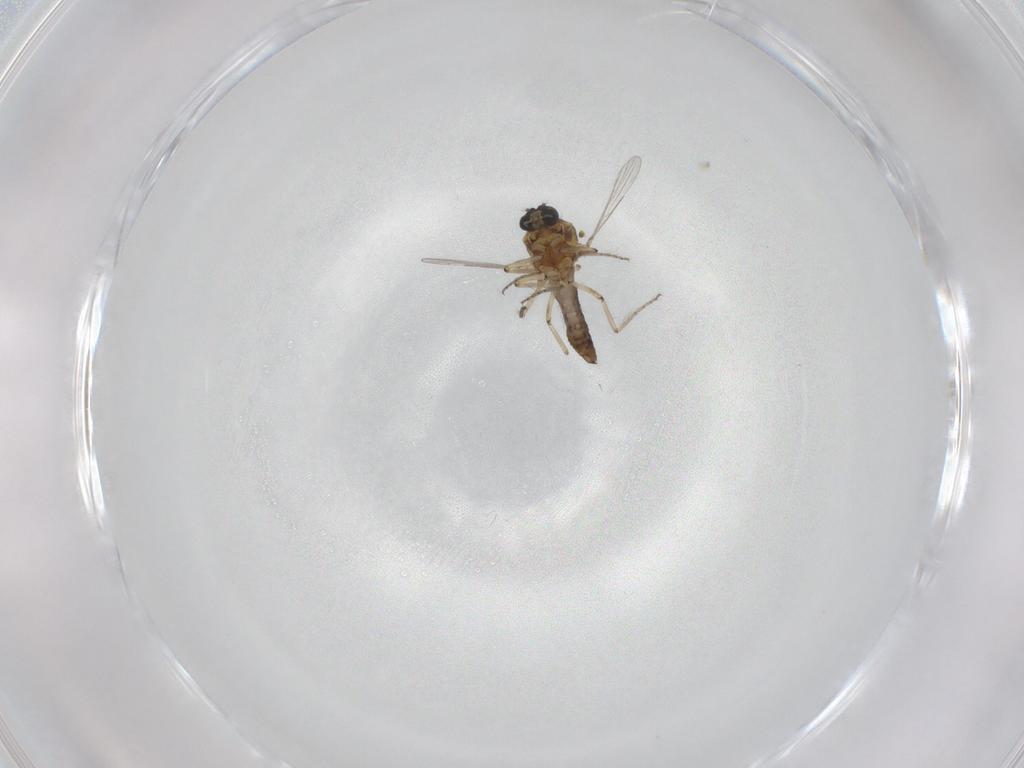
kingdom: Animalia
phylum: Arthropoda
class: Insecta
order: Diptera
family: Ceratopogonidae
